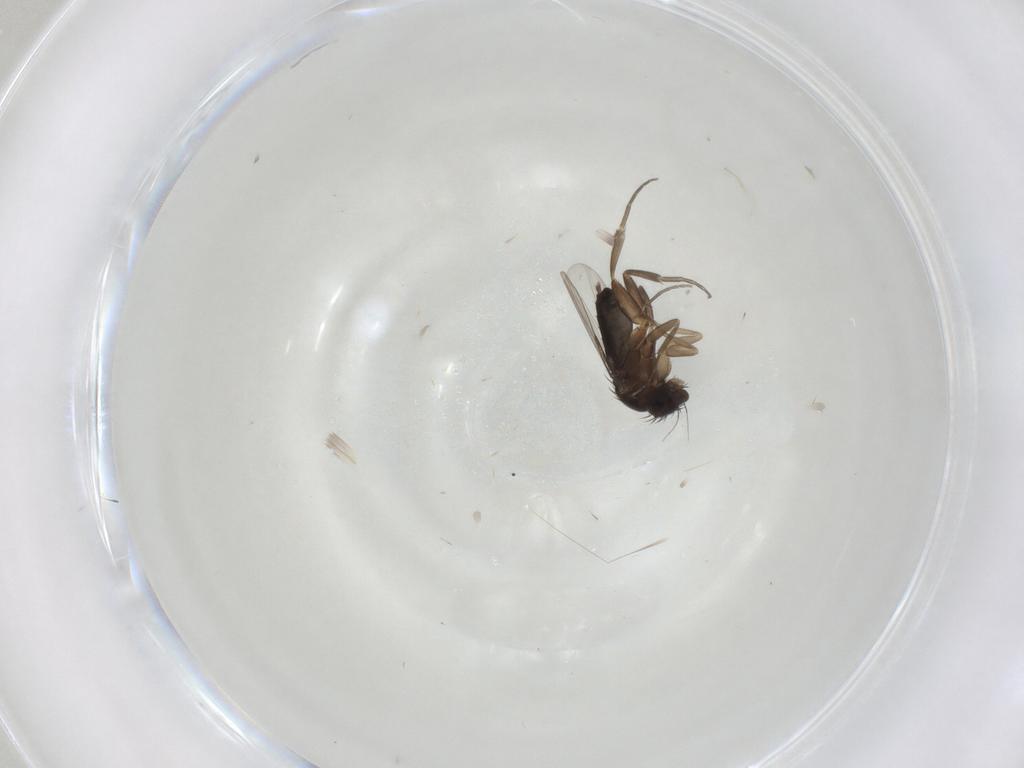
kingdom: Animalia
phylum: Arthropoda
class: Insecta
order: Diptera
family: Phoridae
